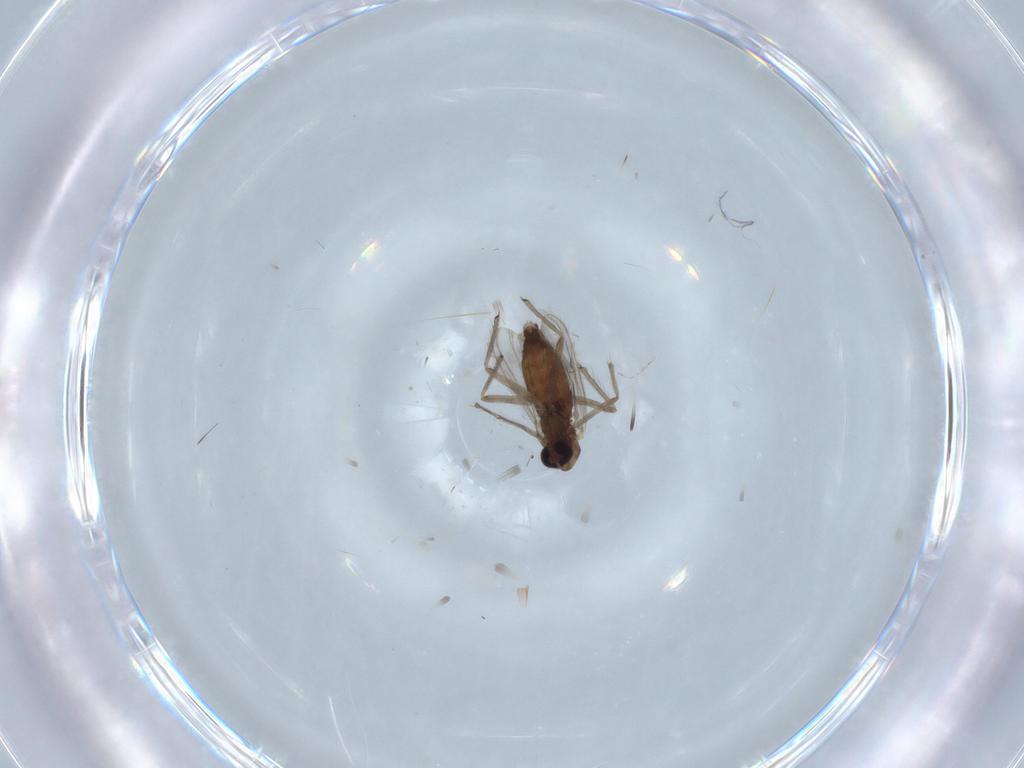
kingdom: Animalia
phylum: Arthropoda
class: Insecta
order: Diptera
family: Chironomidae
